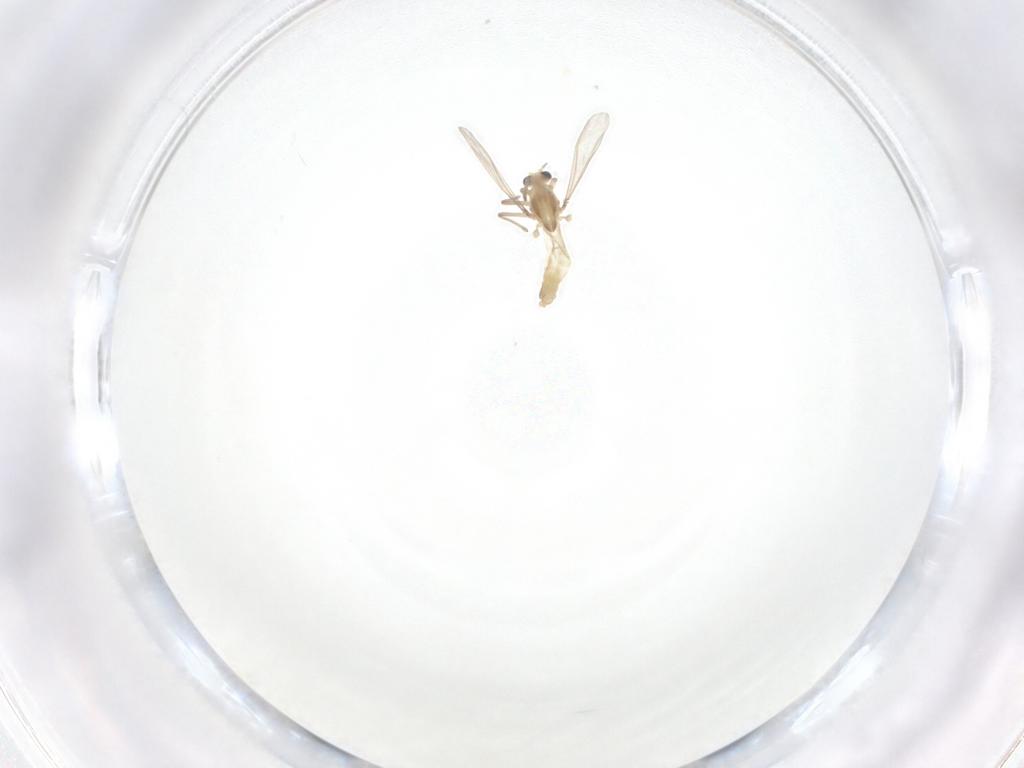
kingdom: Animalia
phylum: Arthropoda
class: Insecta
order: Diptera
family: Chironomidae
